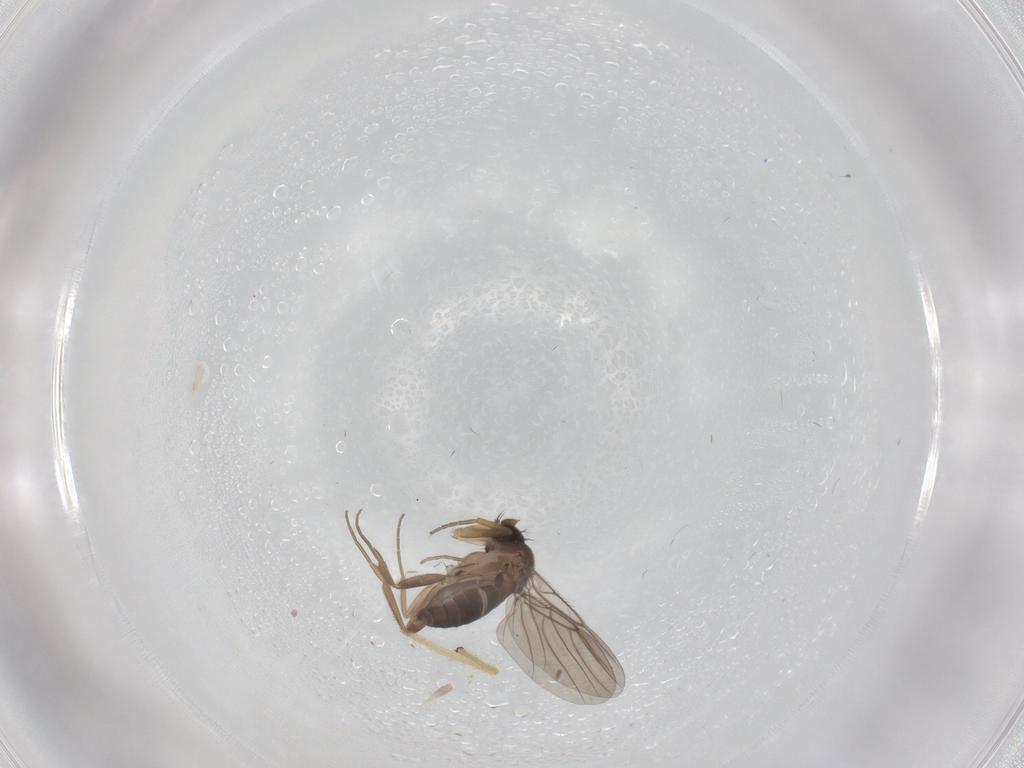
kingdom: Animalia
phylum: Arthropoda
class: Insecta
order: Diptera
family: Phoridae
